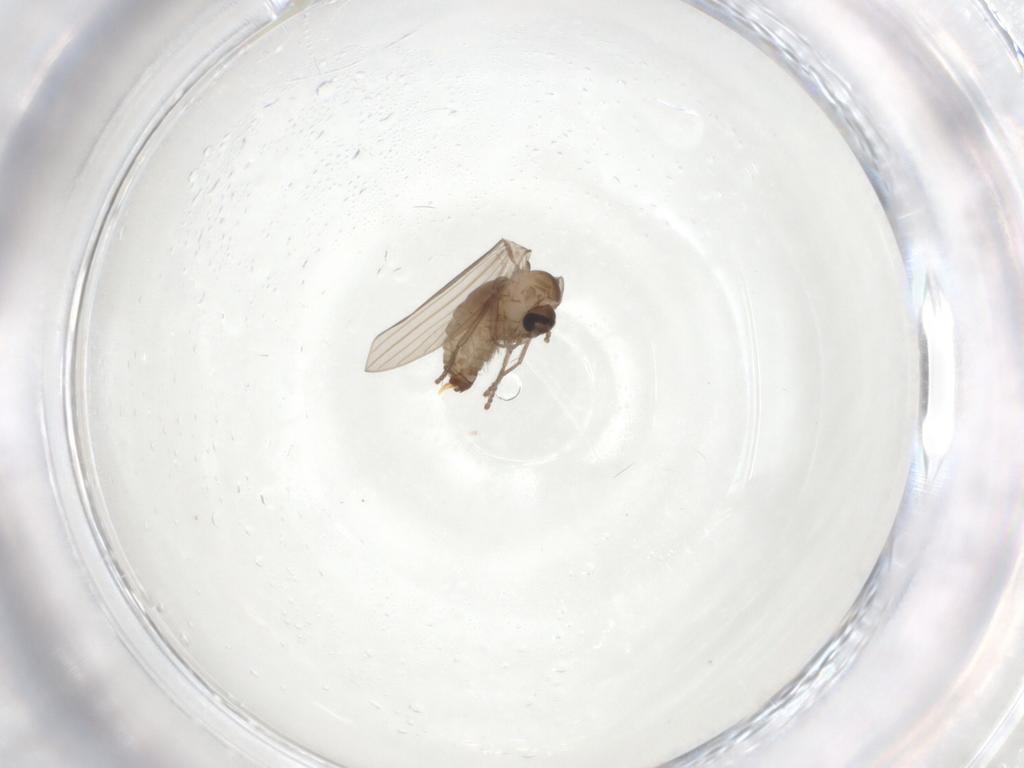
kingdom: Animalia
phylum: Arthropoda
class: Insecta
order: Diptera
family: Psychodidae
